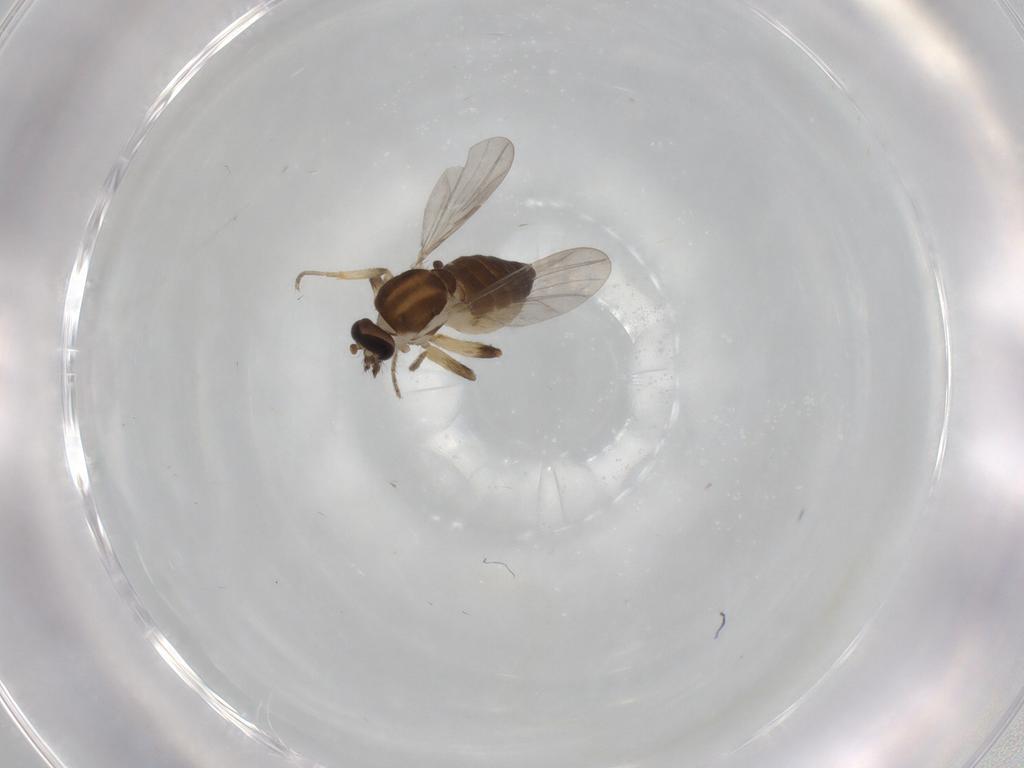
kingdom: Animalia
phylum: Arthropoda
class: Insecta
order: Diptera
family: Ceratopogonidae
